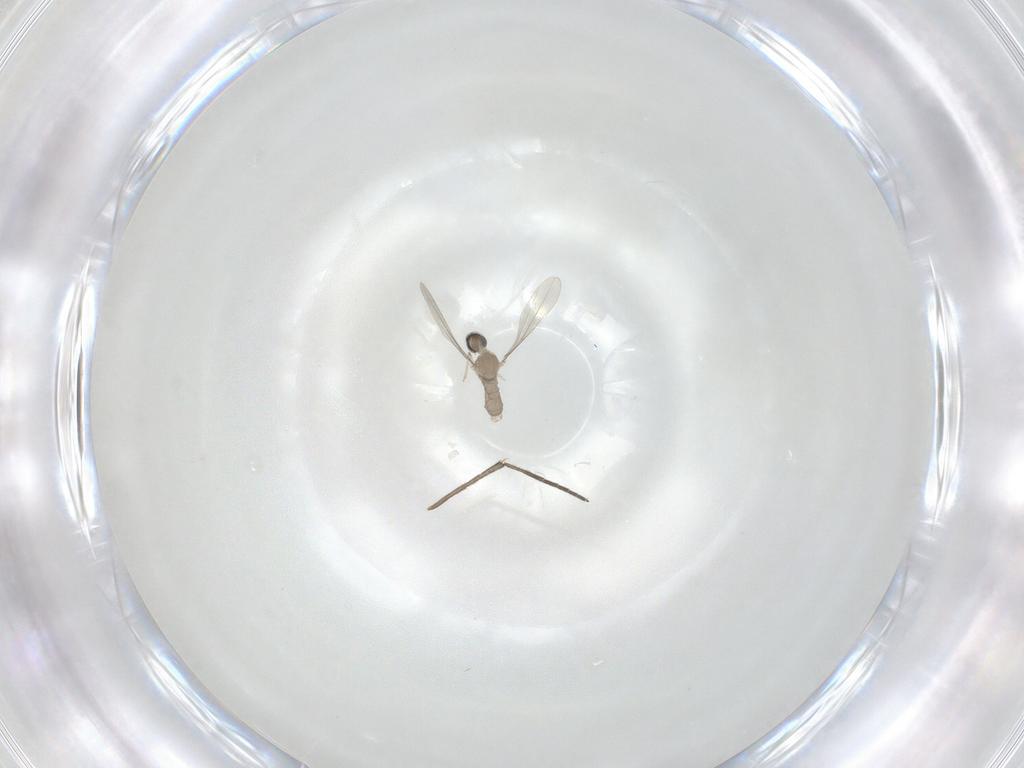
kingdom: Animalia
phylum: Arthropoda
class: Insecta
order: Diptera
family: Cecidomyiidae
